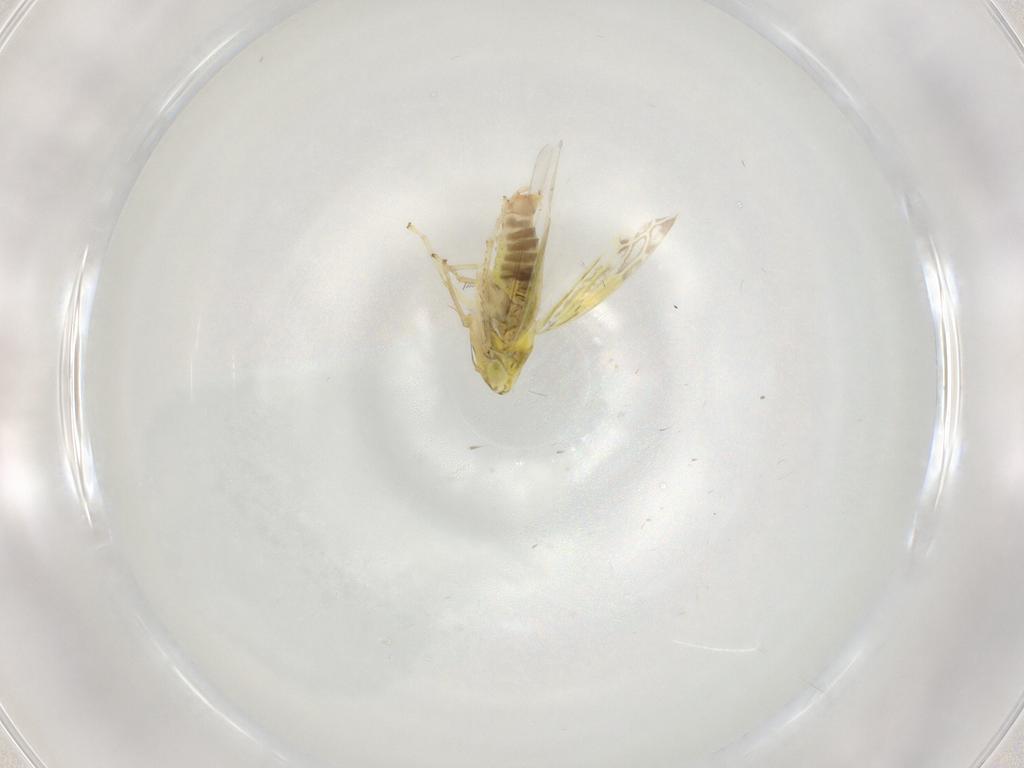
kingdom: Animalia
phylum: Arthropoda
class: Insecta
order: Hemiptera
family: Cicadellidae
